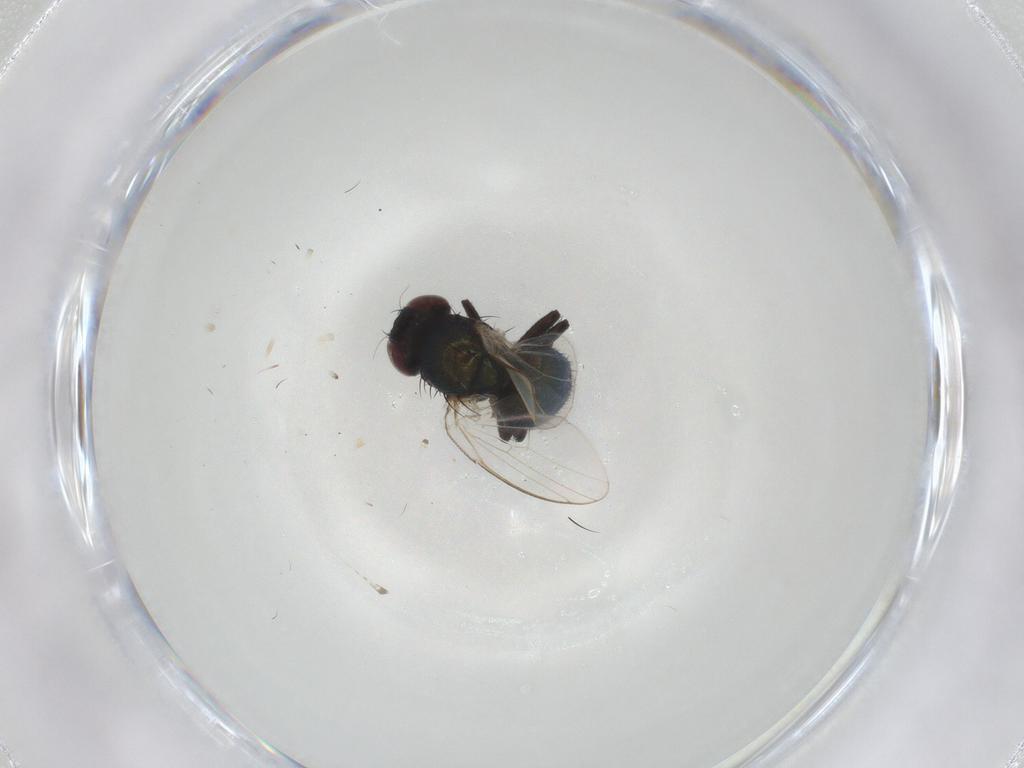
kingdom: Animalia
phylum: Arthropoda
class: Insecta
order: Diptera
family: Agromyzidae
